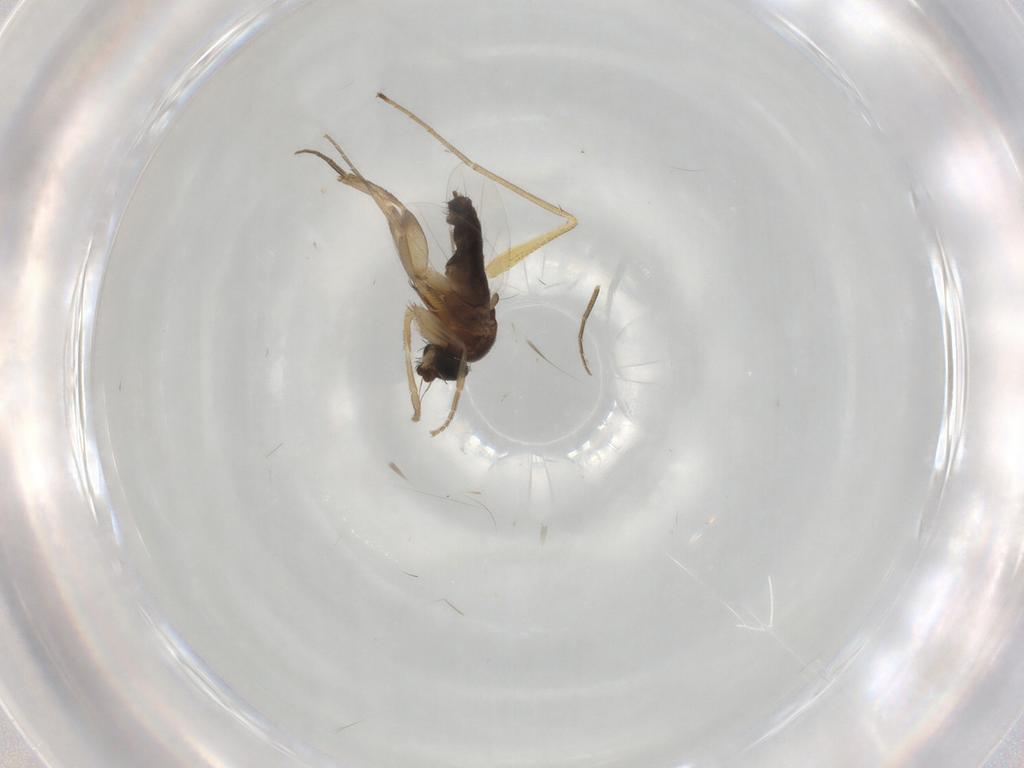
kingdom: Animalia
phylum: Arthropoda
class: Insecta
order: Diptera
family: Dolichopodidae
